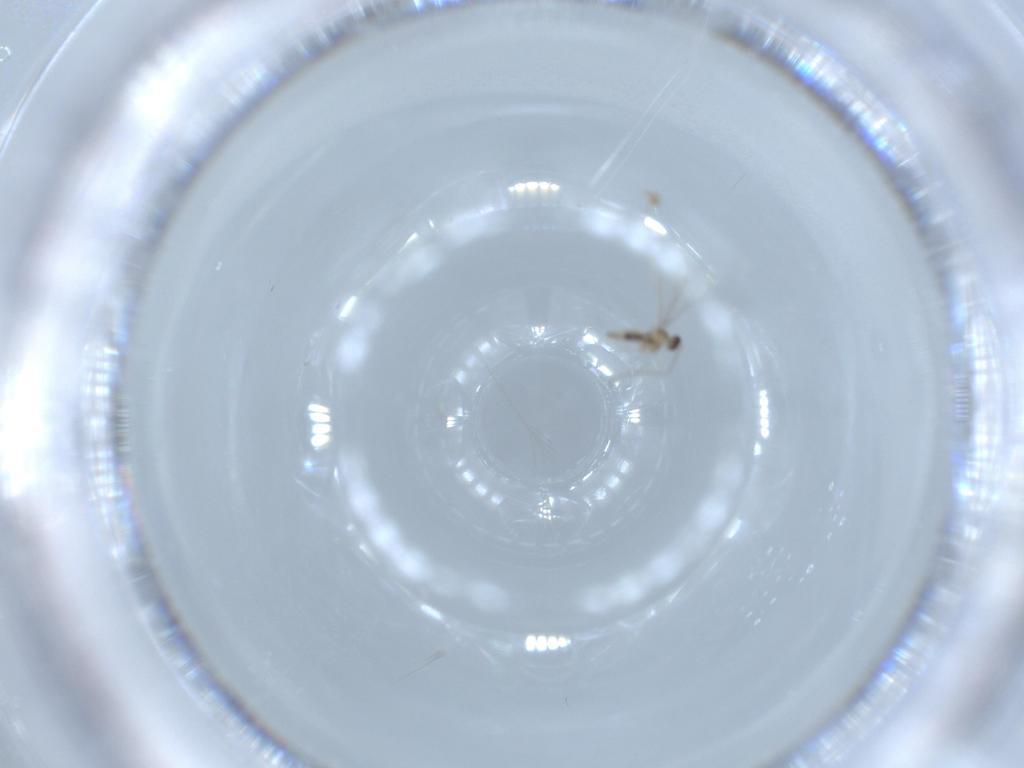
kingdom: Animalia
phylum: Arthropoda
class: Insecta
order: Diptera
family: Cecidomyiidae
